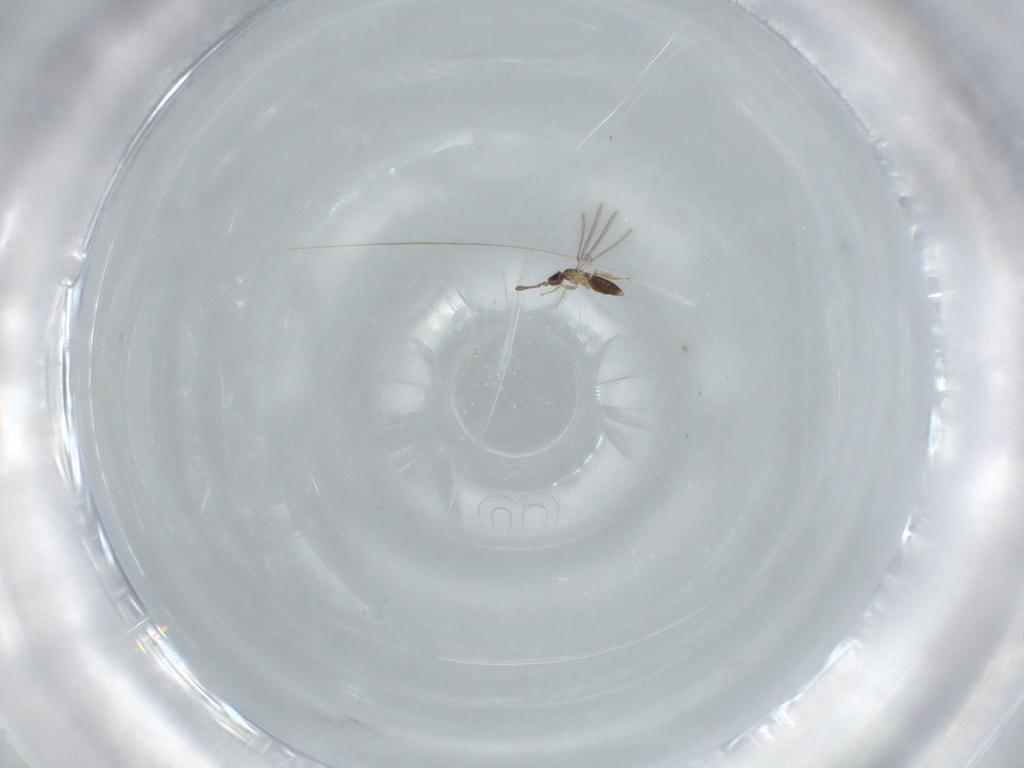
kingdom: Animalia
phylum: Arthropoda
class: Insecta
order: Hymenoptera
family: Mymaridae
